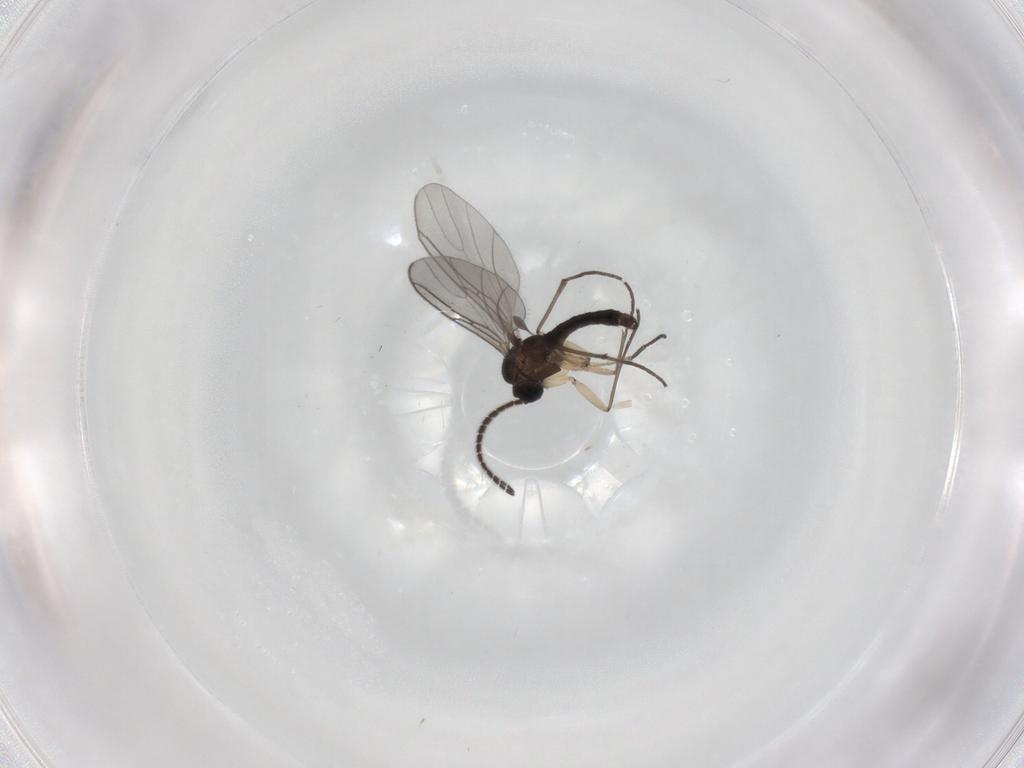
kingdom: Animalia
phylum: Arthropoda
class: Insecta
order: Diptera
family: Sciaridae
